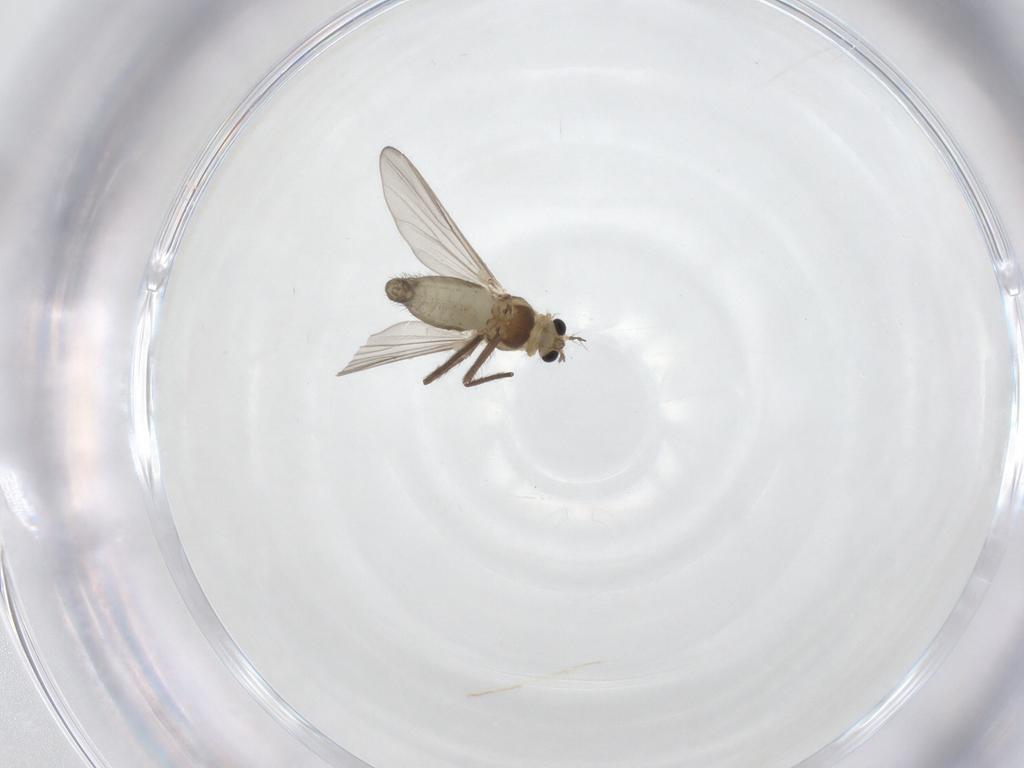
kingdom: Animalia
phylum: Arthropoda
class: Insecta
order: Diptera
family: Chironomidae
